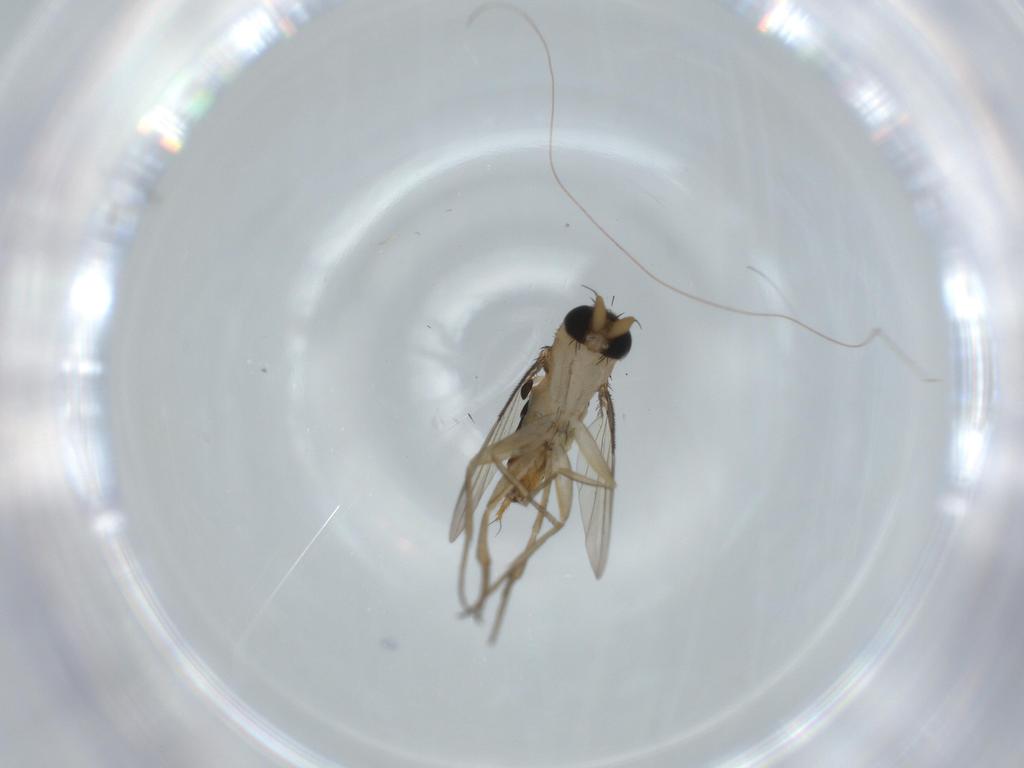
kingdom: Animalia
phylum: Arthropoda
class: Insecta
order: Diptera
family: Phoridae
